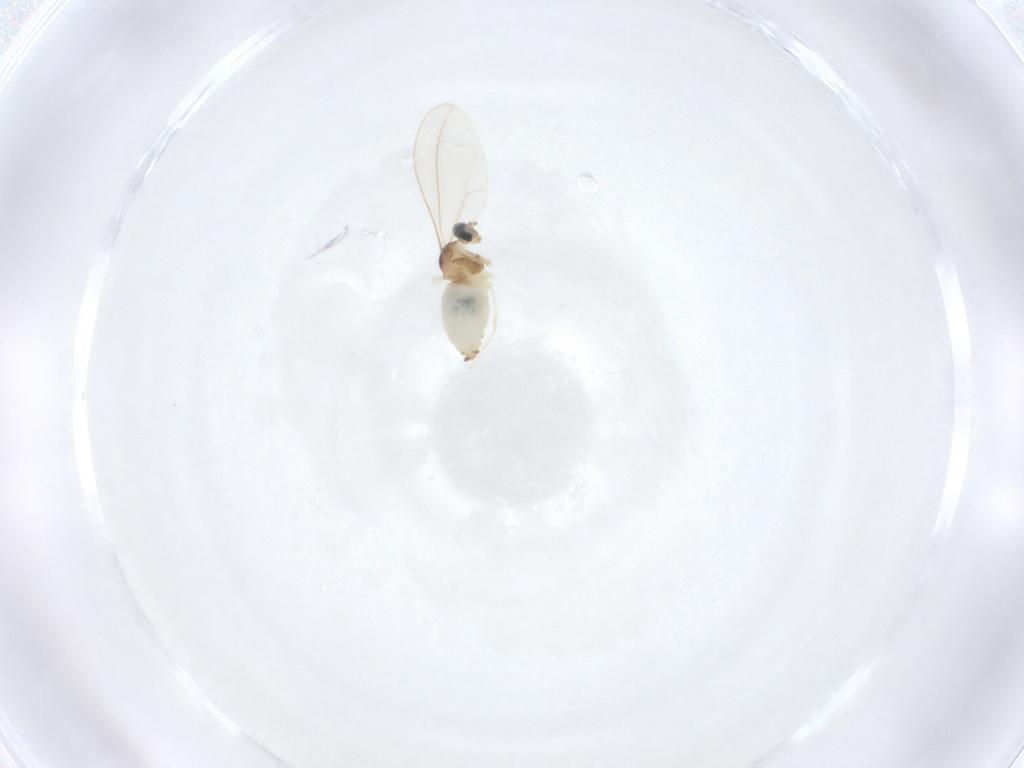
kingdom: Animalia
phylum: Arthropoda
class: Insecta
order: Diptera
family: Cecidomyiidae
